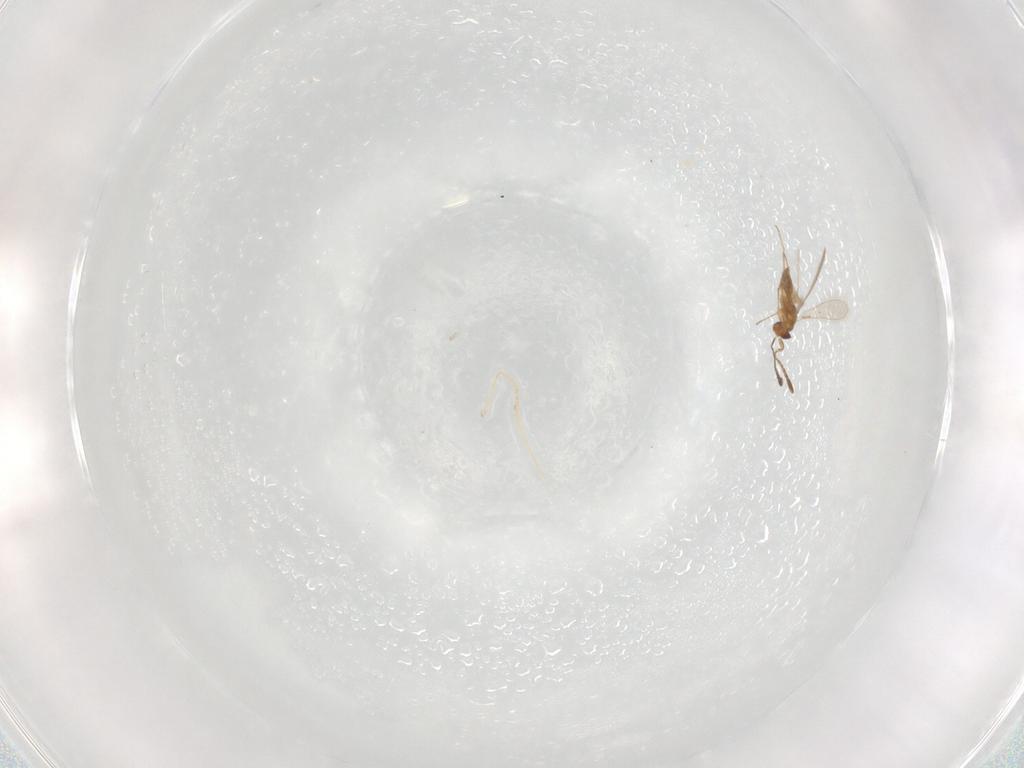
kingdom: Animalia
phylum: Arthropoda
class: Insecta
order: Hymenoptera
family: Mymaridae
